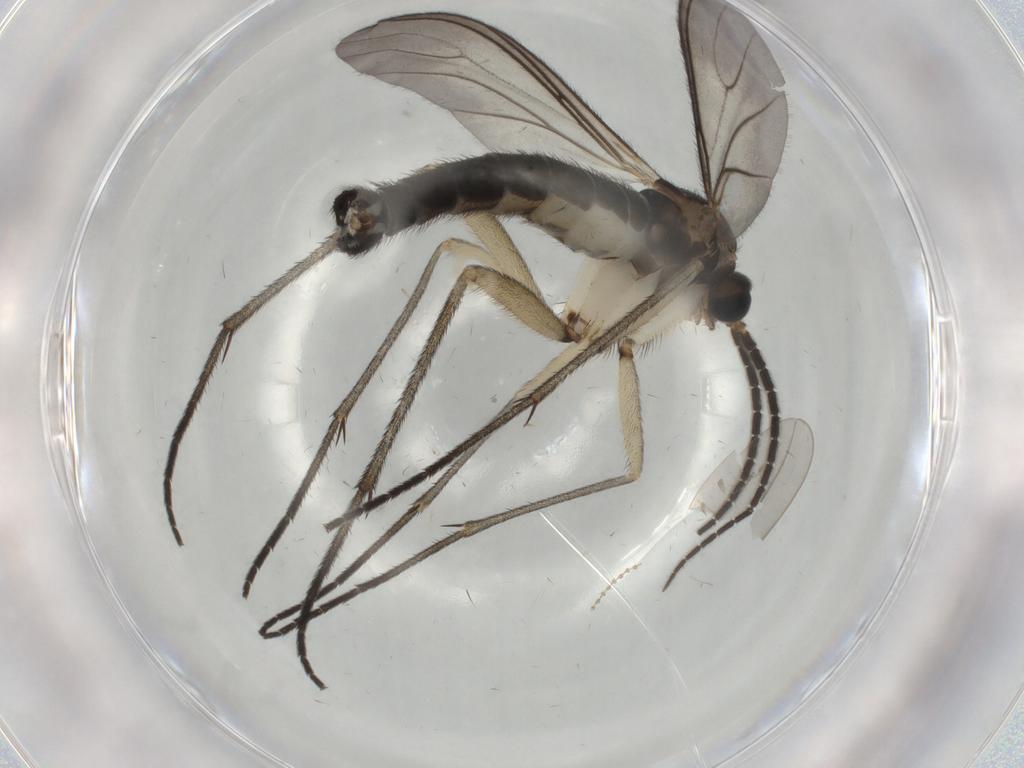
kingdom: Animalia
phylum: Arthropoda
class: Insecta
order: Diptera
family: Sciaridae
